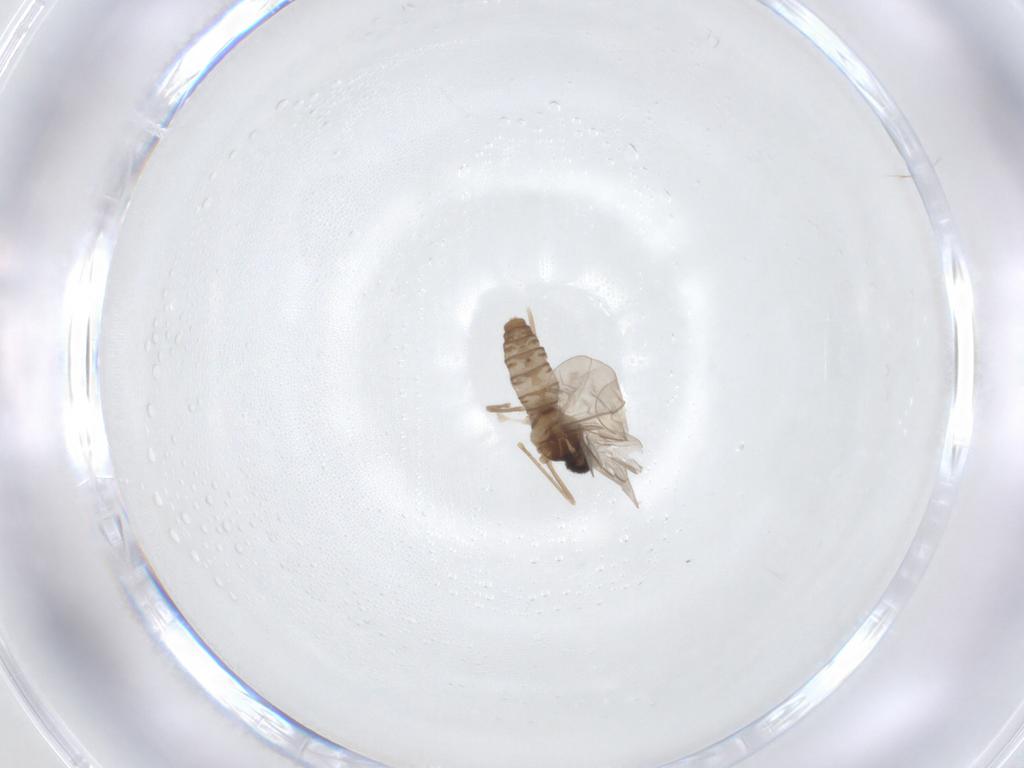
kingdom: Animalia
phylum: Arthropoda
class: Insecta
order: Diptera
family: Cecidomyiidae
